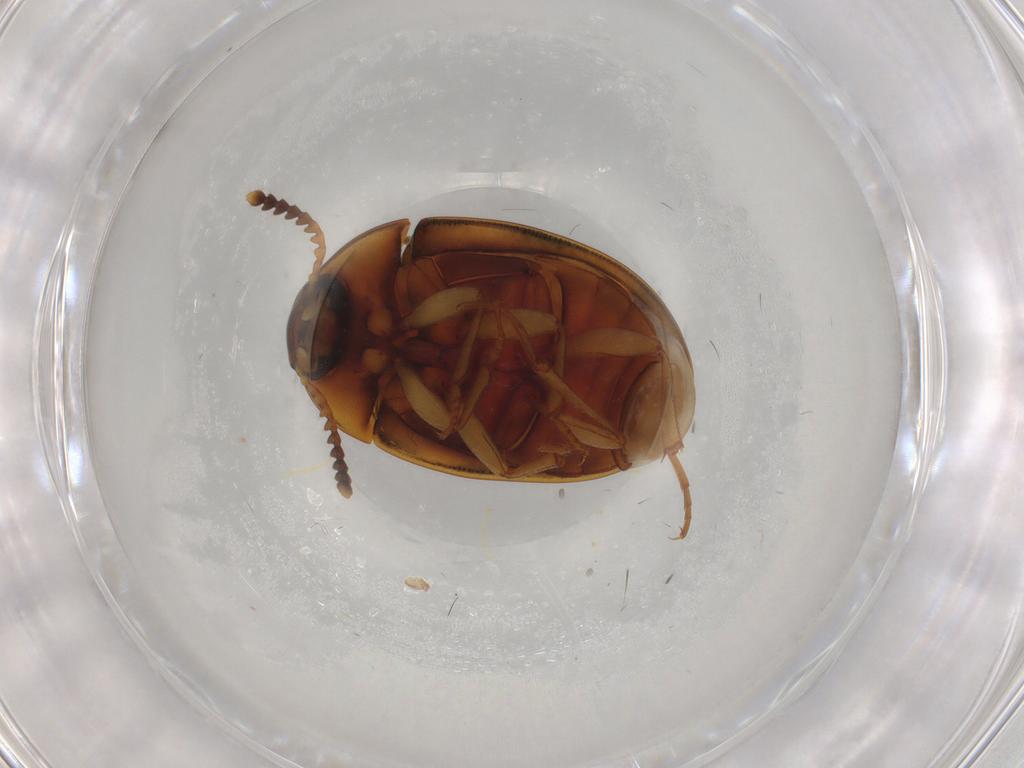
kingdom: Animalia
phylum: Arthropoda
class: Insecta
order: Coleoptera
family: Tenebrionidae
